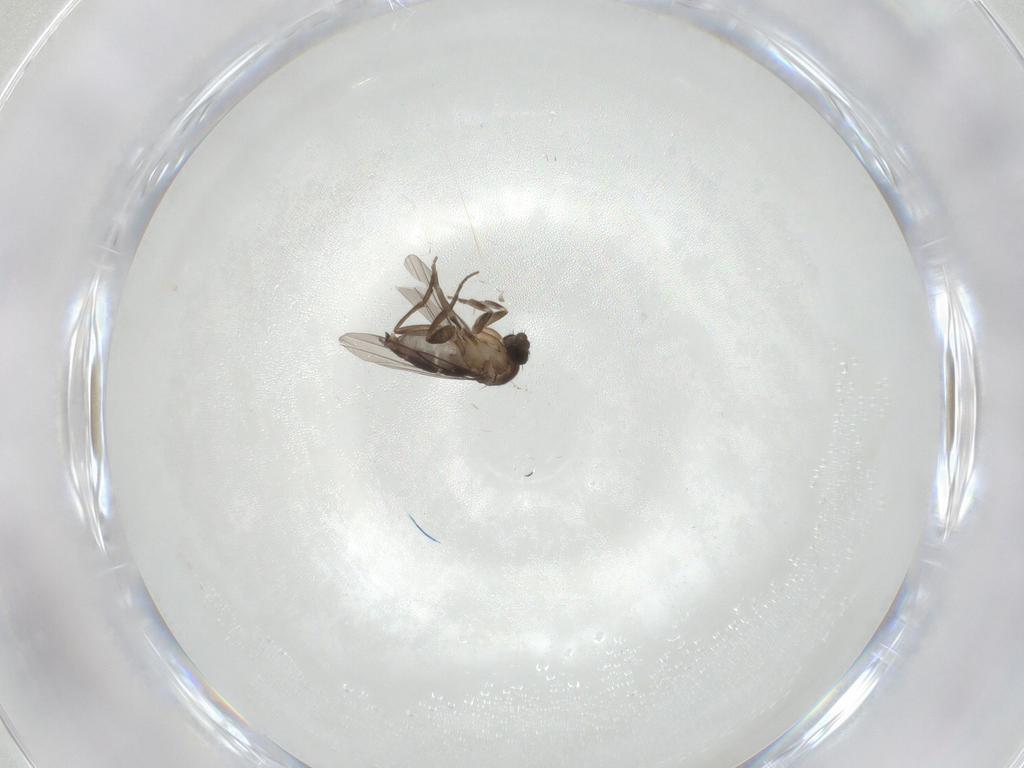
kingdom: Animalia
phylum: Arthropoda
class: Insecta
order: Diptera
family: Phoridae
